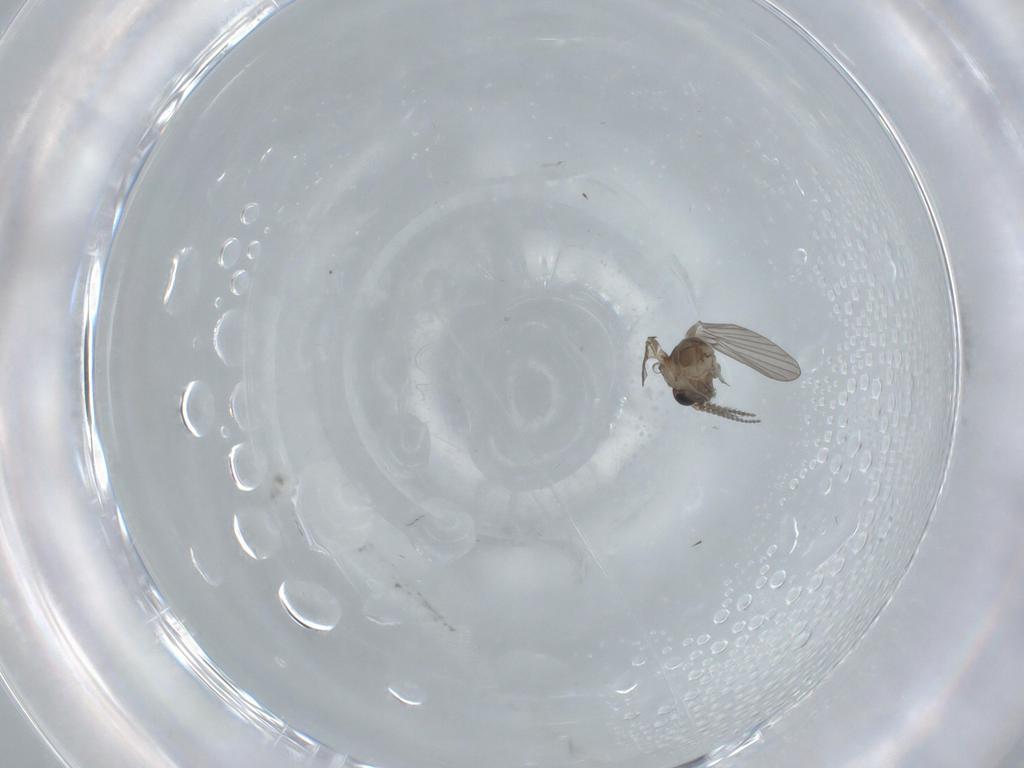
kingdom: Animalia
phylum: Arthropoda
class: Insecta
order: Diptera
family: Psychodidae
